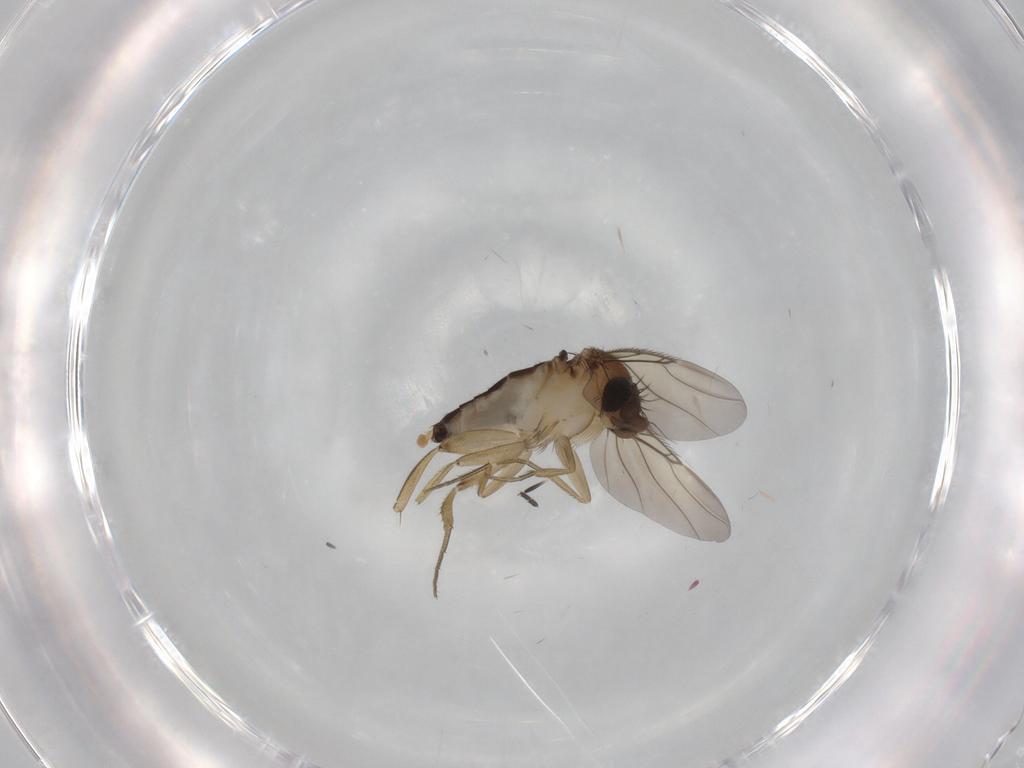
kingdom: Animalia
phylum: Arthropoda
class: Insecta
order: Diptera
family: Phoridae
